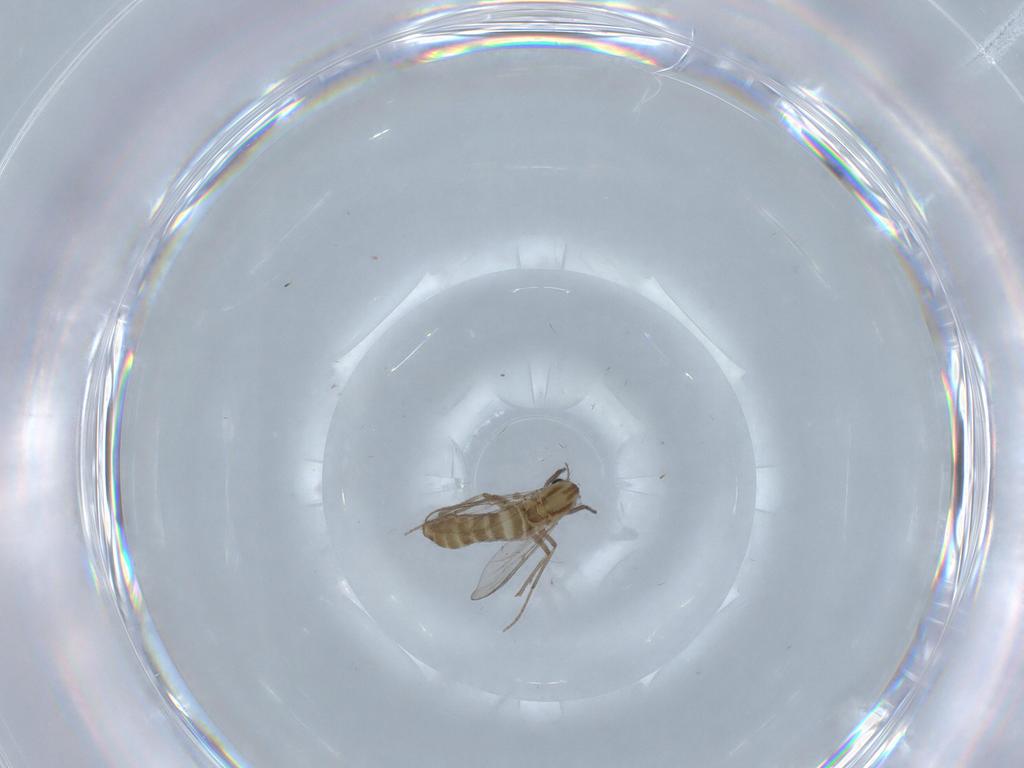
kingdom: Animalia
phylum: Arthropoda
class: Insecta
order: Diptera
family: Chironomidae
